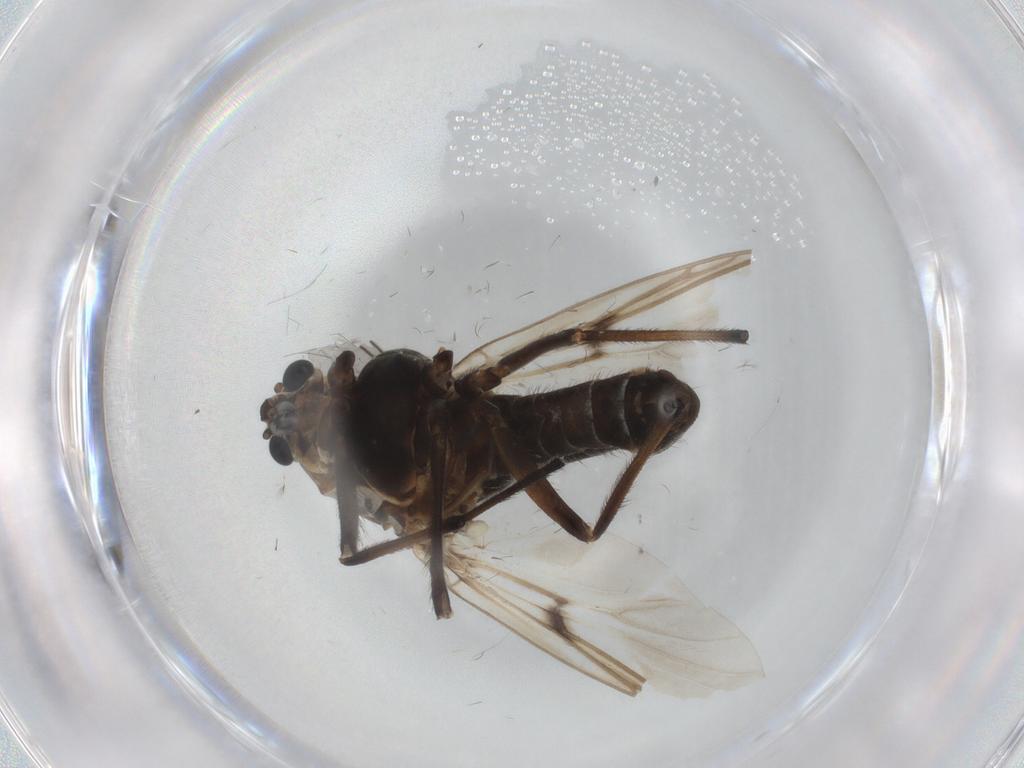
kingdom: Animalia
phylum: Arthropoda
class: Insecta
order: Diptera
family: Chironomidae
